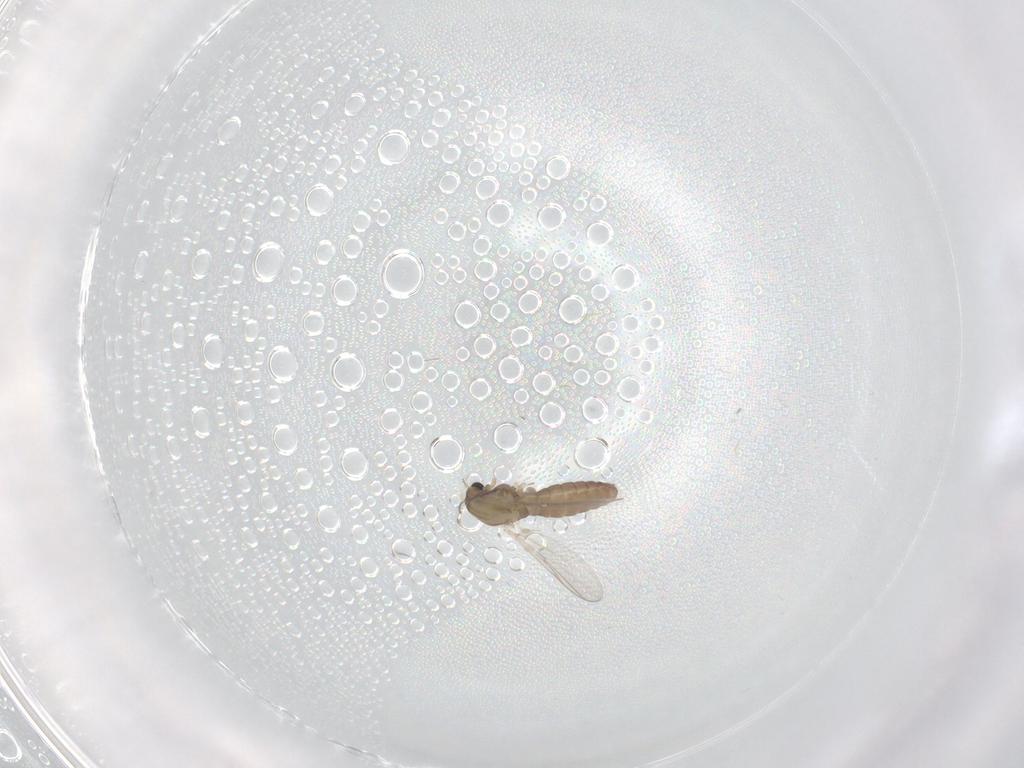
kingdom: Animalia
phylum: Arthropoda
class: Insecta
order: Diptera
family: Chironomidae
